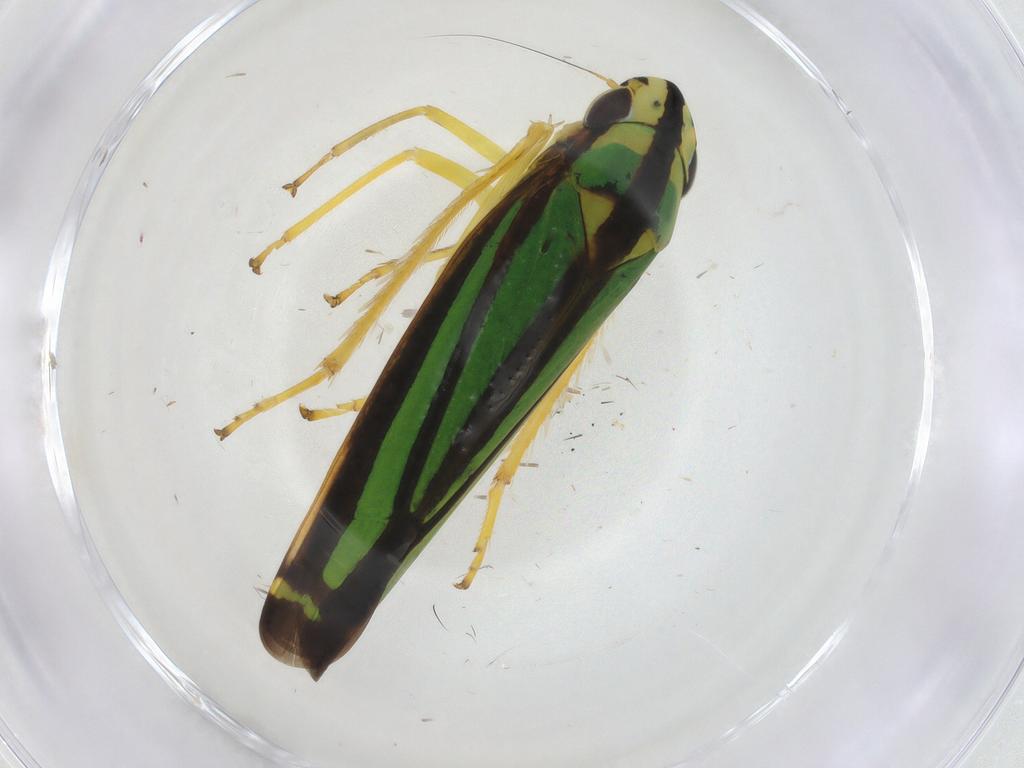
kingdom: Animalia
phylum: Arthropoda
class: Insecta
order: Hemiptera
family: Cicadellidae
